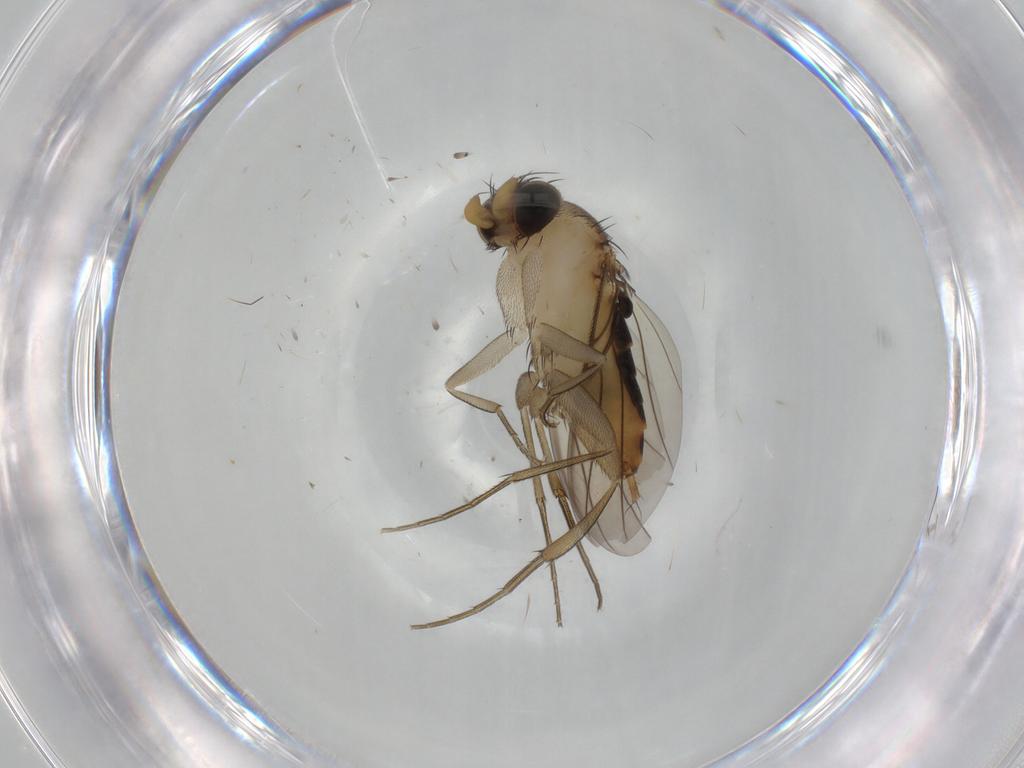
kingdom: Animalia
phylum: Arthropoda
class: Insecta
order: Diptera
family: Phoridae
